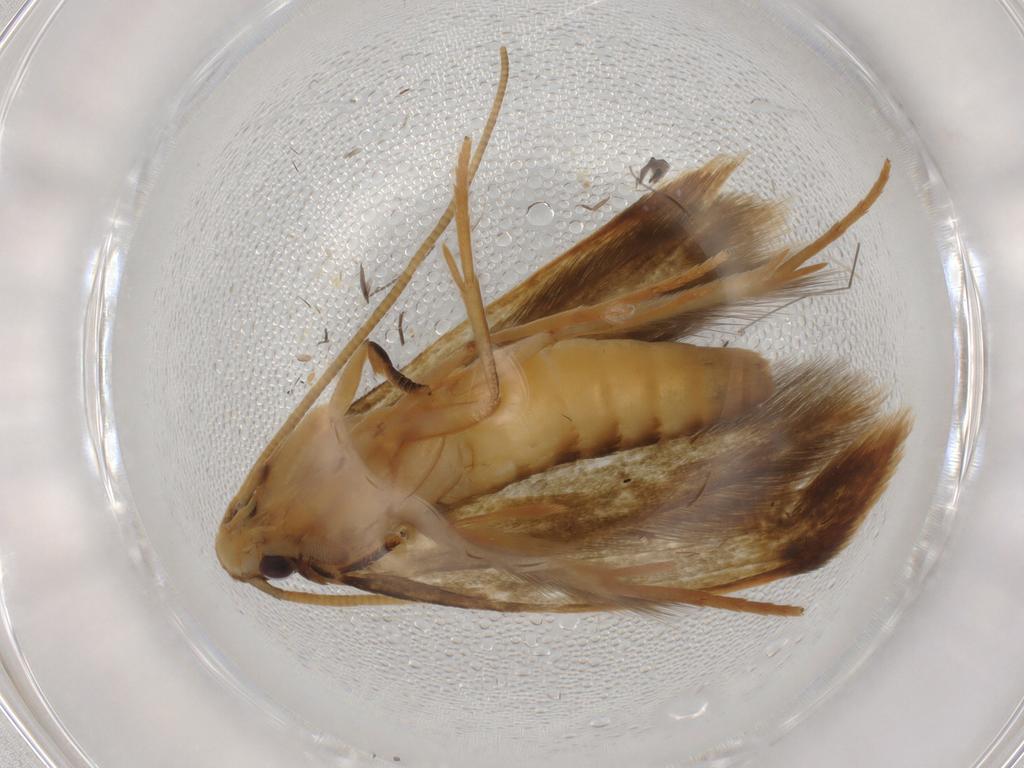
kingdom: Animalia
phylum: Arthropoda
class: Insecta
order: Lepidoptera
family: Tineidae
